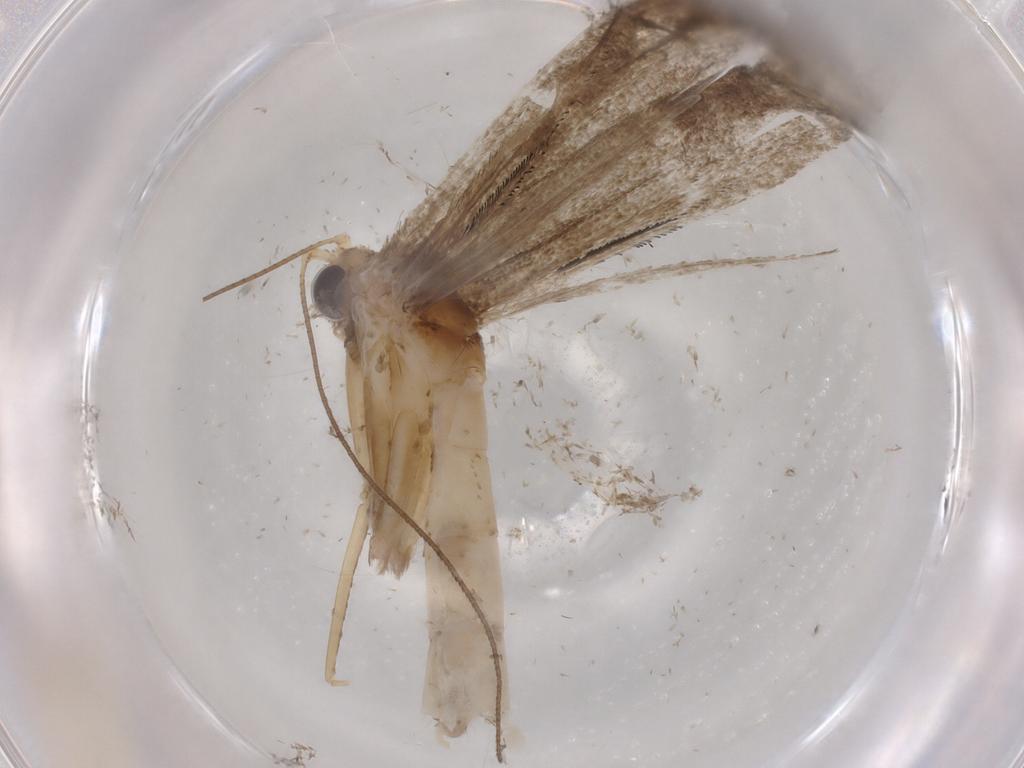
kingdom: Animalia
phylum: Arthropoda
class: Insecta
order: Lepidoptera
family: Pterophoridae
